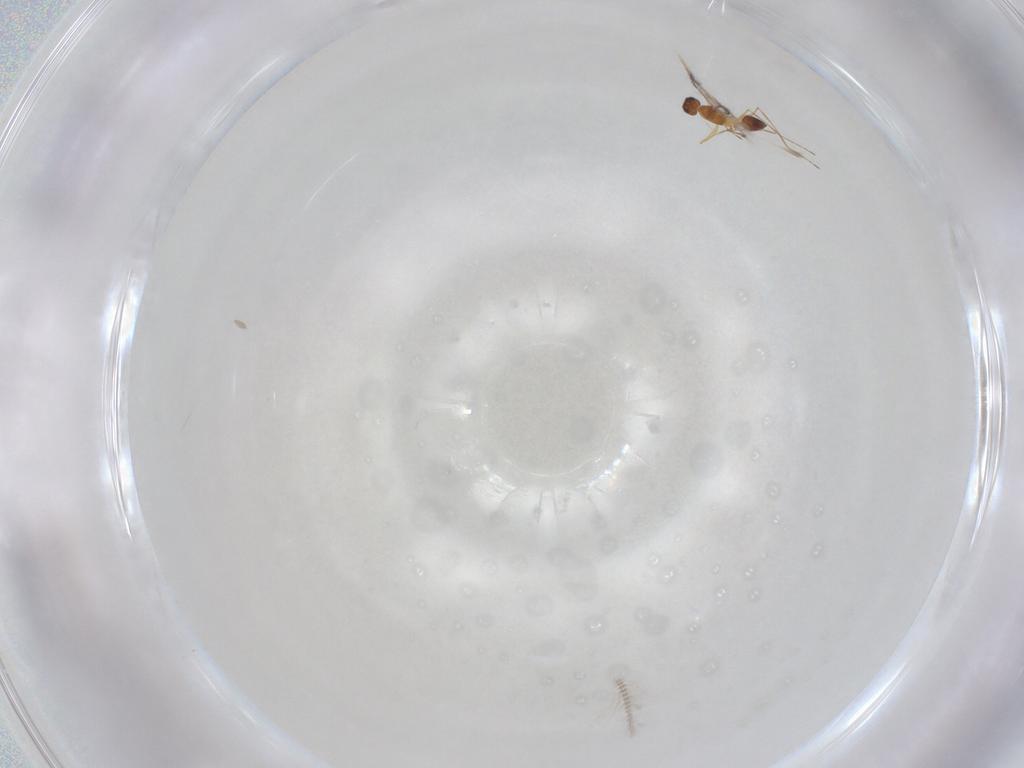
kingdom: Animalia
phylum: Arthropoda
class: Insecta
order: Hymenoptera
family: Mymaridae
